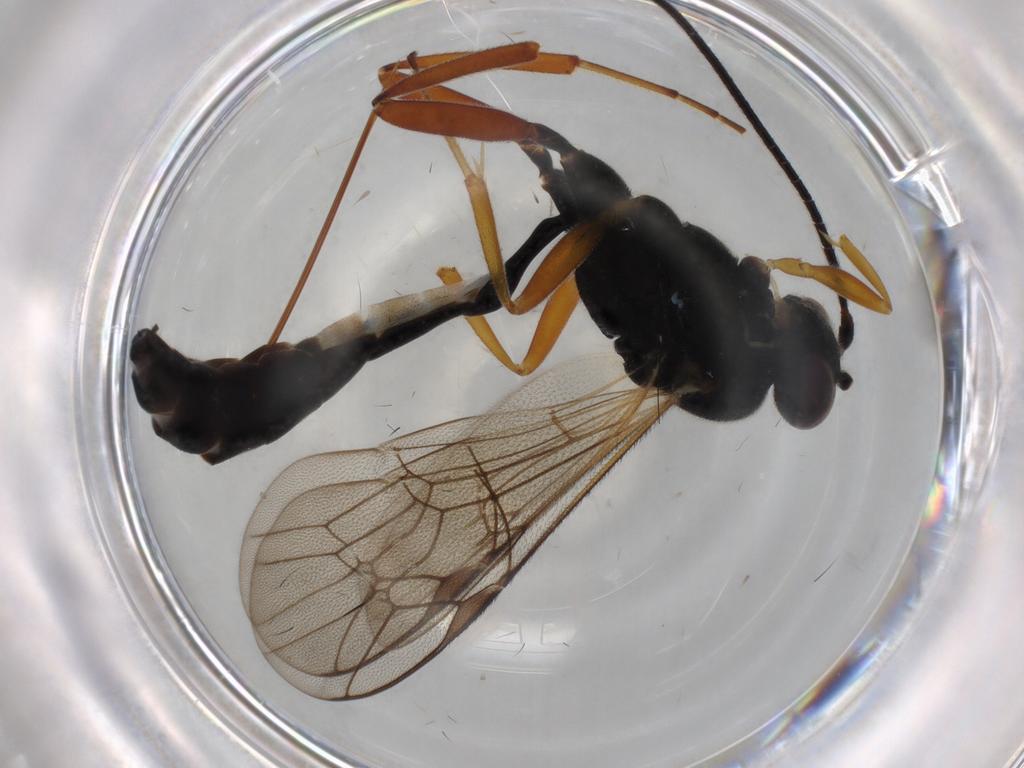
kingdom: Animalia
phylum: Arthropoda
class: Insecta
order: Hymenoptera
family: Ichneumonidae
